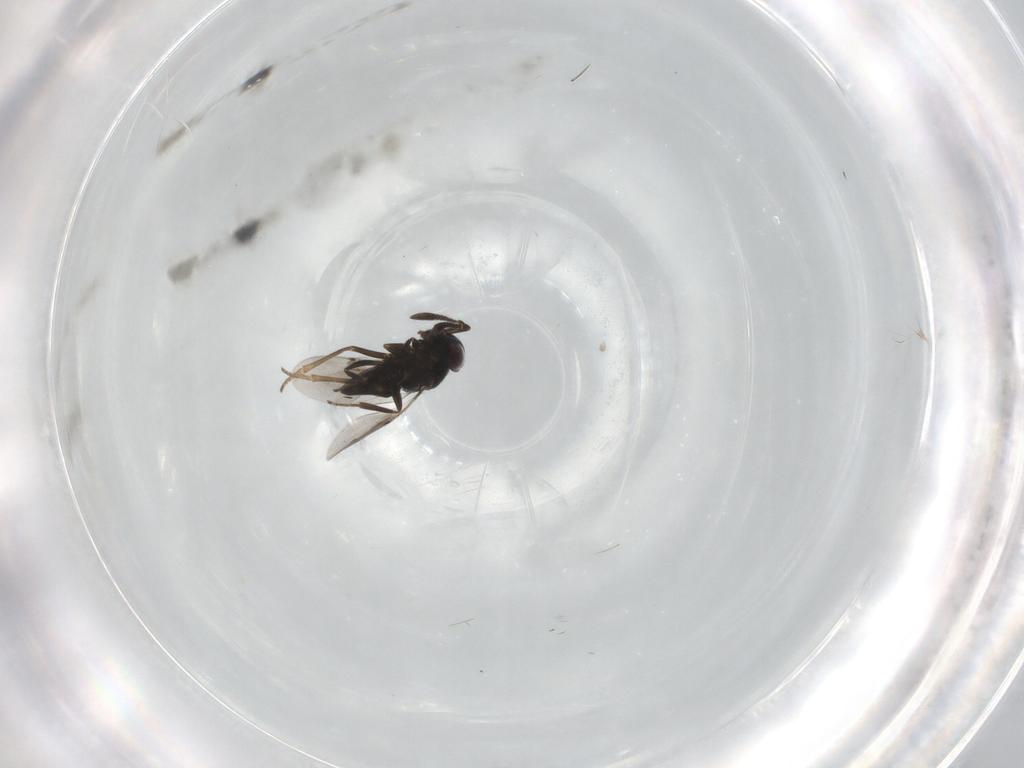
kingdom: Animalia
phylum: Arthropoda
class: Insecta
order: Hymenoptera
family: Encyrtidae
